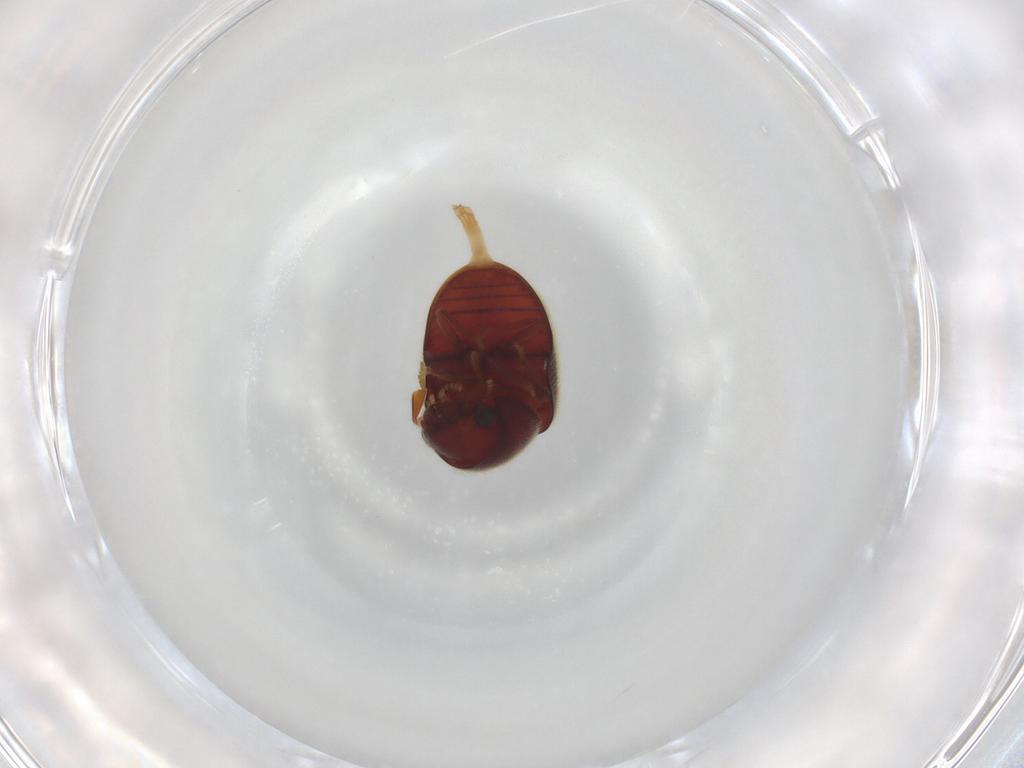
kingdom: Animalia
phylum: Arthropoda
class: Insecta
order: Coleoptera
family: Ptinidae
